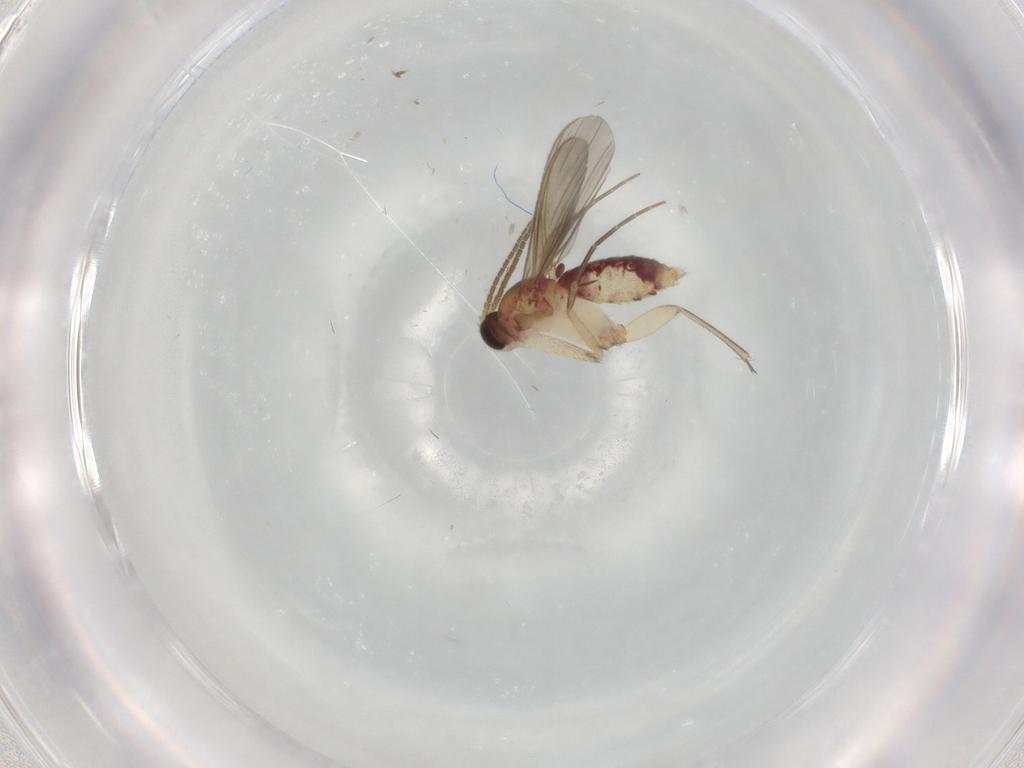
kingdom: Animalia
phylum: Arthropoda
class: Insecta
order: Diptera
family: Mycetophilidae
